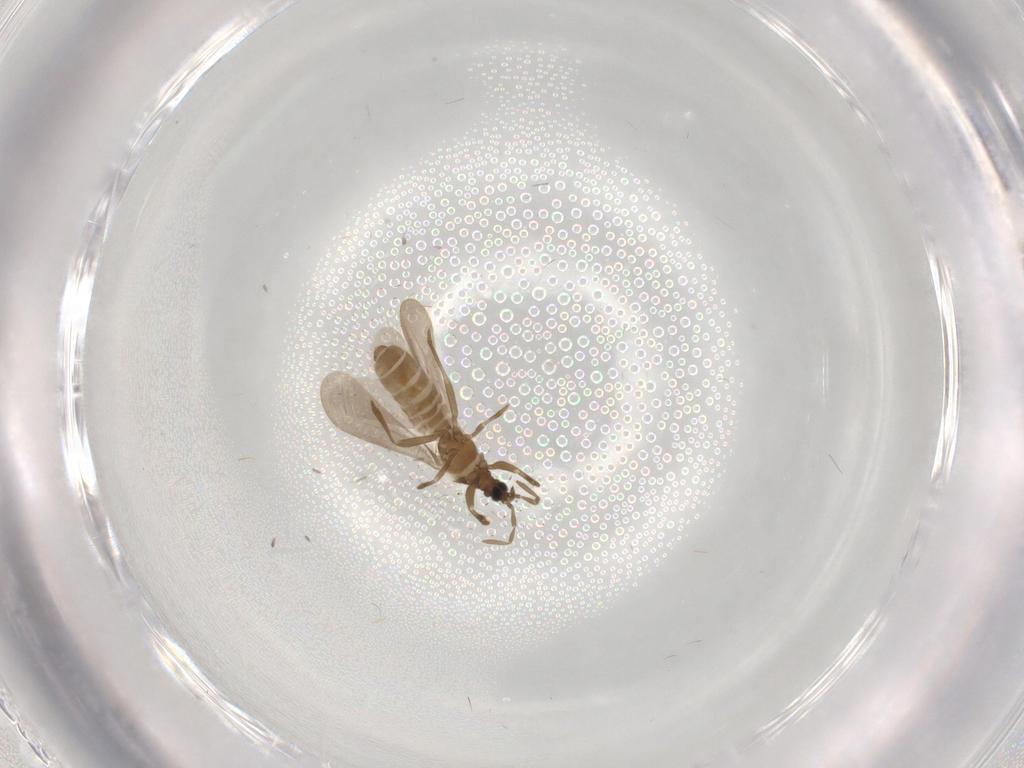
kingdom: Animalia
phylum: Arthropoda
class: Insecta
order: Hemiptera
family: Enicocephalidae
